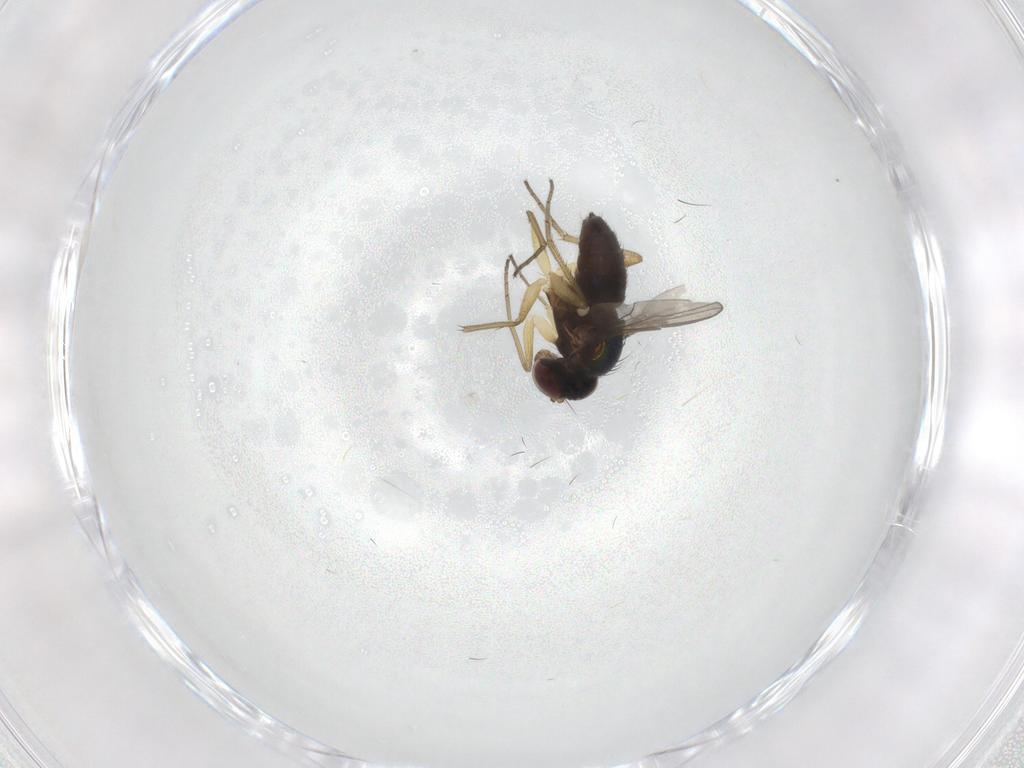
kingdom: Animalia
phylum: Arthropoda
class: Insecta
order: Diptera
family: Dolichopodidae
